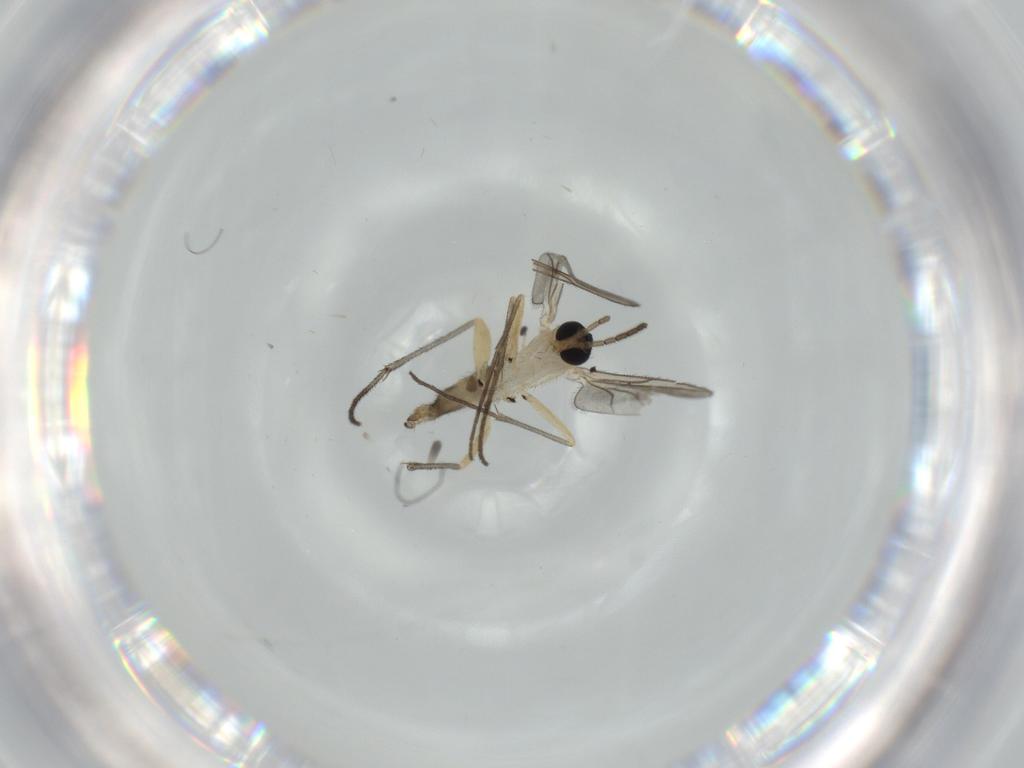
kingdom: Animalia
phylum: Arthropoda
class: Insecta
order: Diptera
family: Sciaridae
